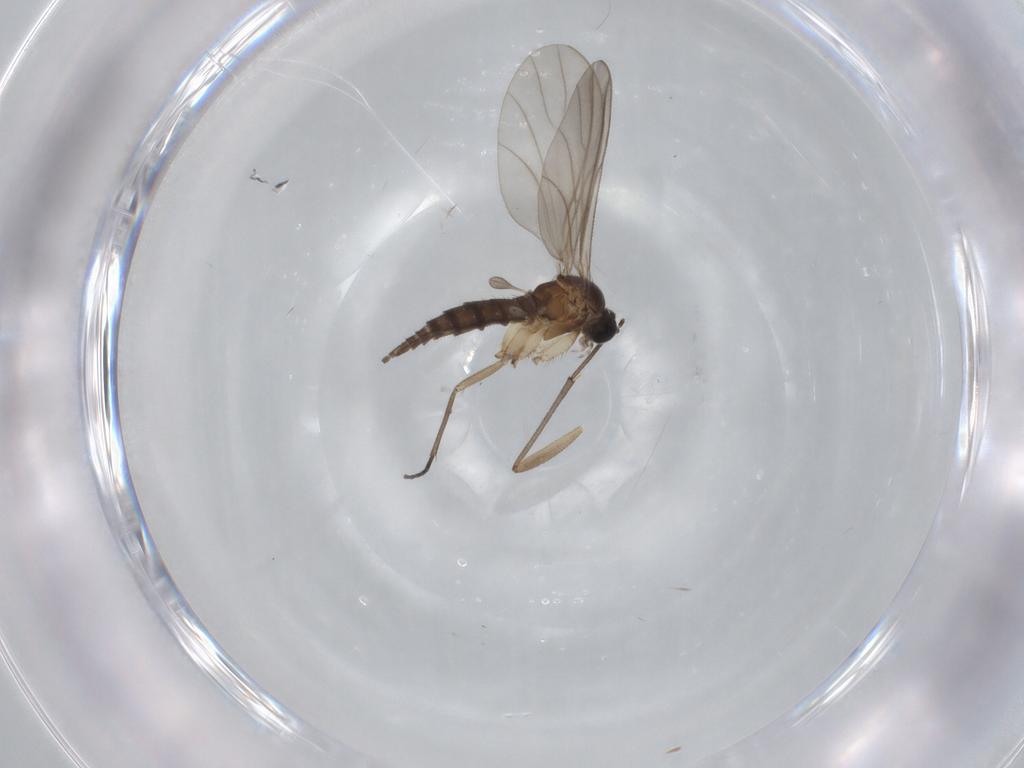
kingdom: Animalia
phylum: Arthropoda
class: Insecta
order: Diptera
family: Sciaridae
